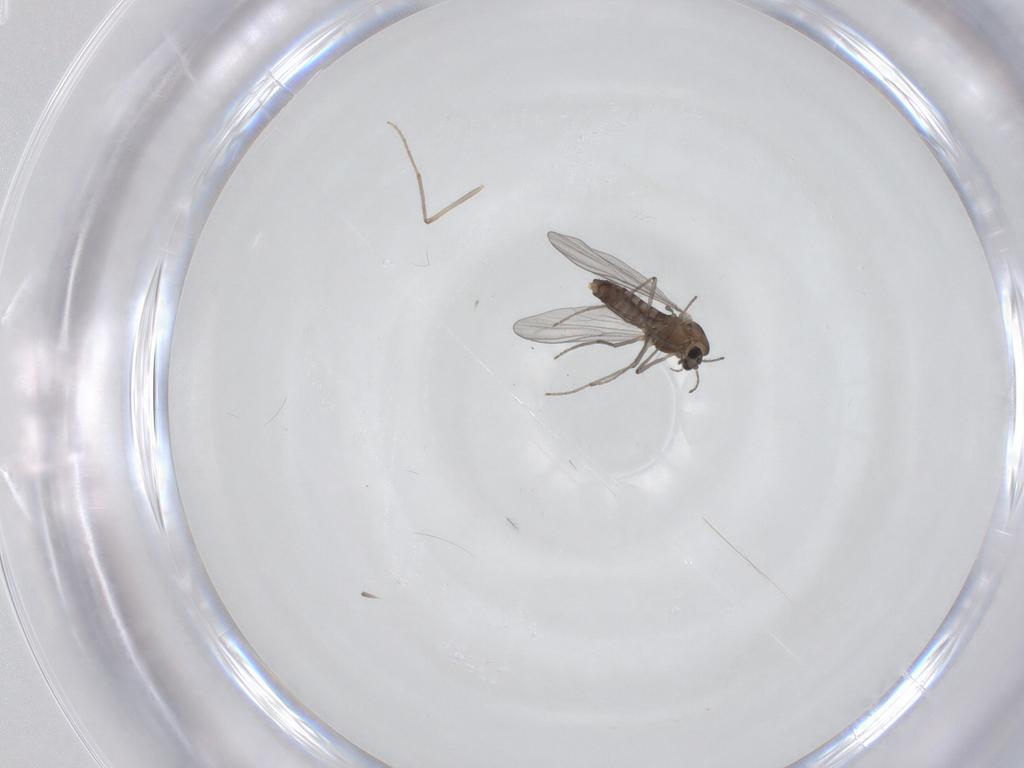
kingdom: Animalia
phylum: Arthropoda
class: Insecta
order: Diptera
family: Chironomidae
